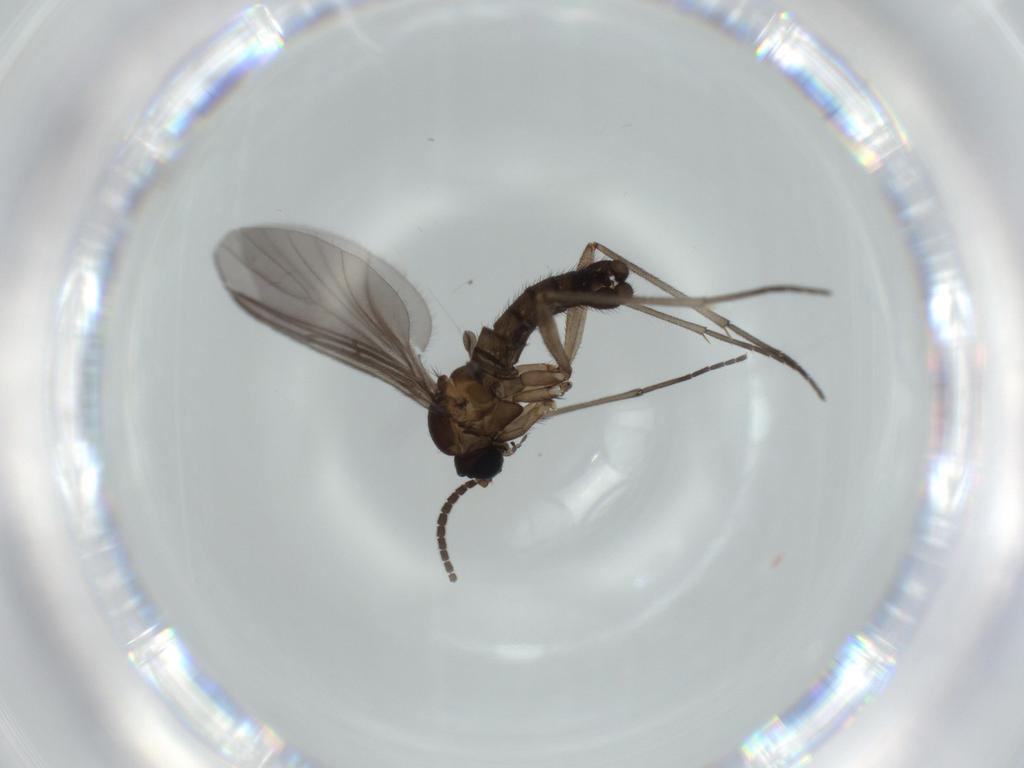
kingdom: Animalia
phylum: Arthropoda
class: Insecta
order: Diptera
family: Sciaridae
